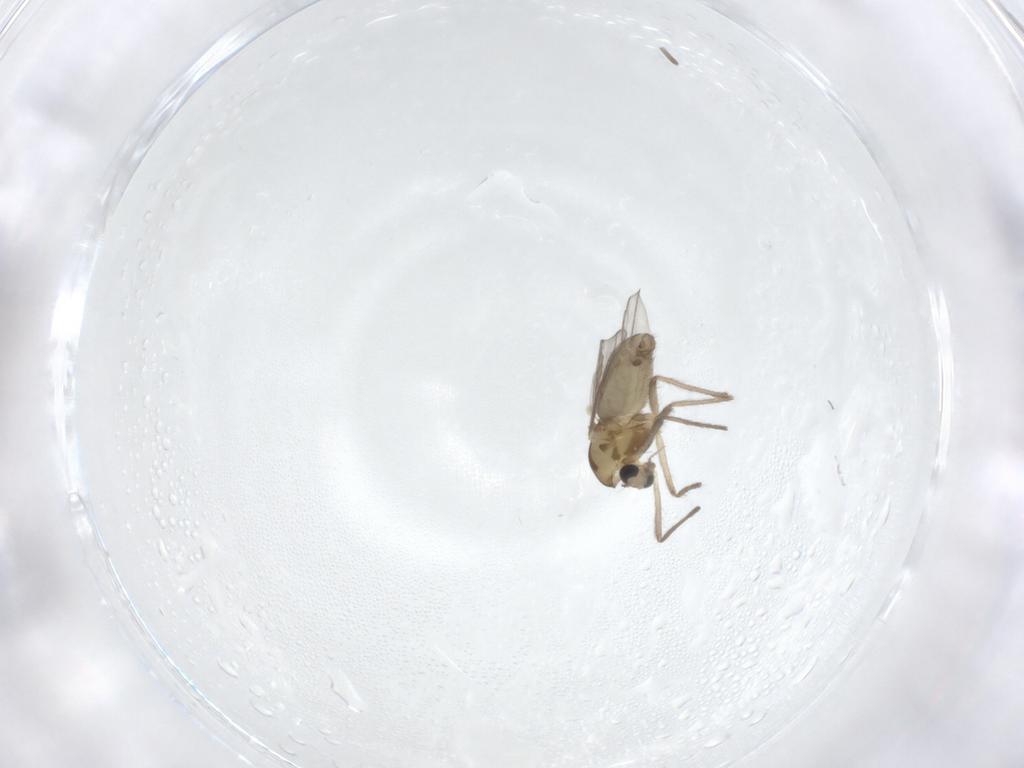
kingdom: Animalia
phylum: Arthropoda
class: Insecta
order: Diptera
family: Chironomidae
